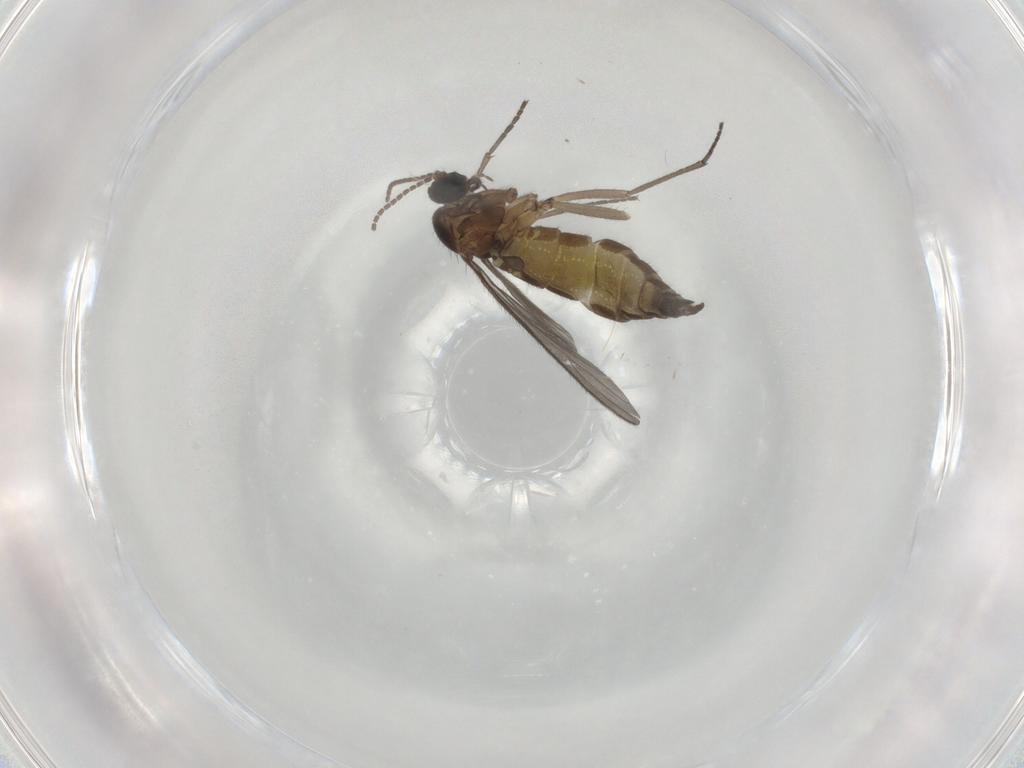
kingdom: Animalia
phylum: Arthropoda
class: Insecta
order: Diptera
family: Sciaridae
